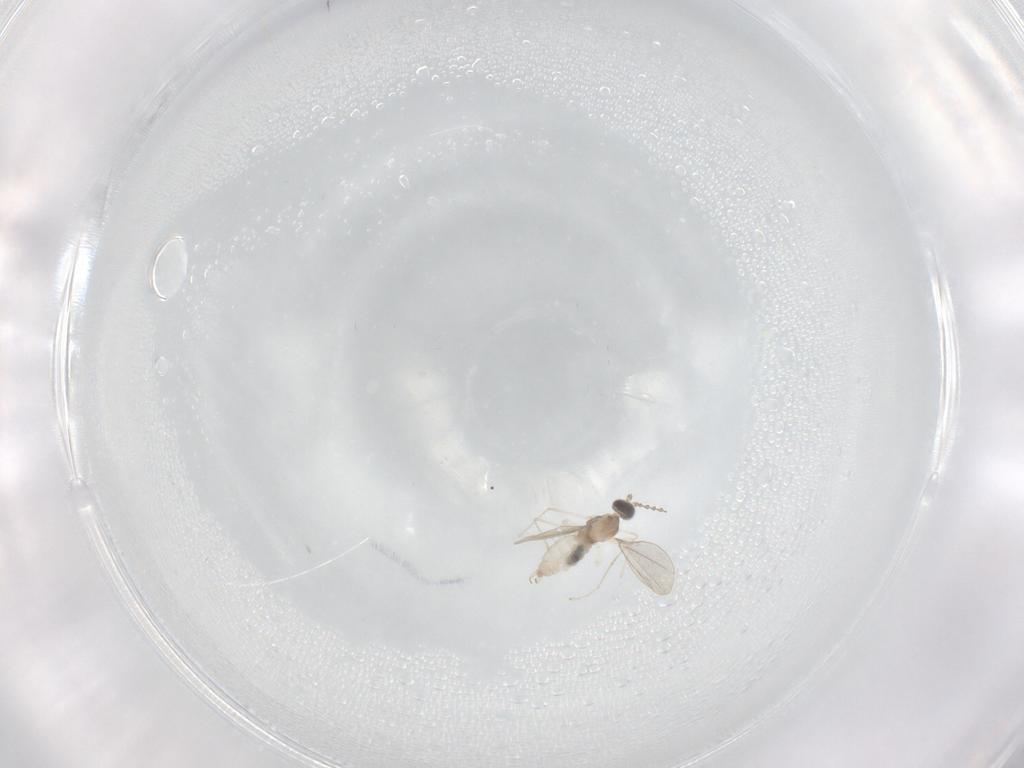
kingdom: Animalia
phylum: Arthropoda
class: Insecta
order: Diptera
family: Cecidomyiidae
